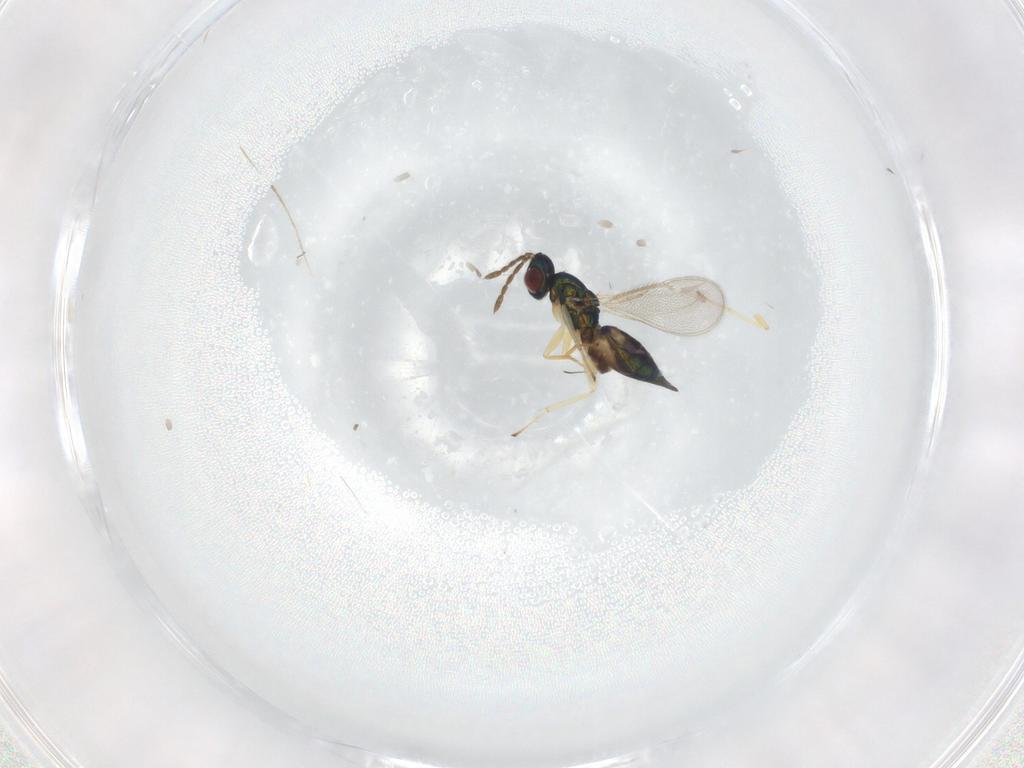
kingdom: Animalia
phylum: Arthropoda
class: Insecta
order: Hymenoptera
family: Eulophidae
